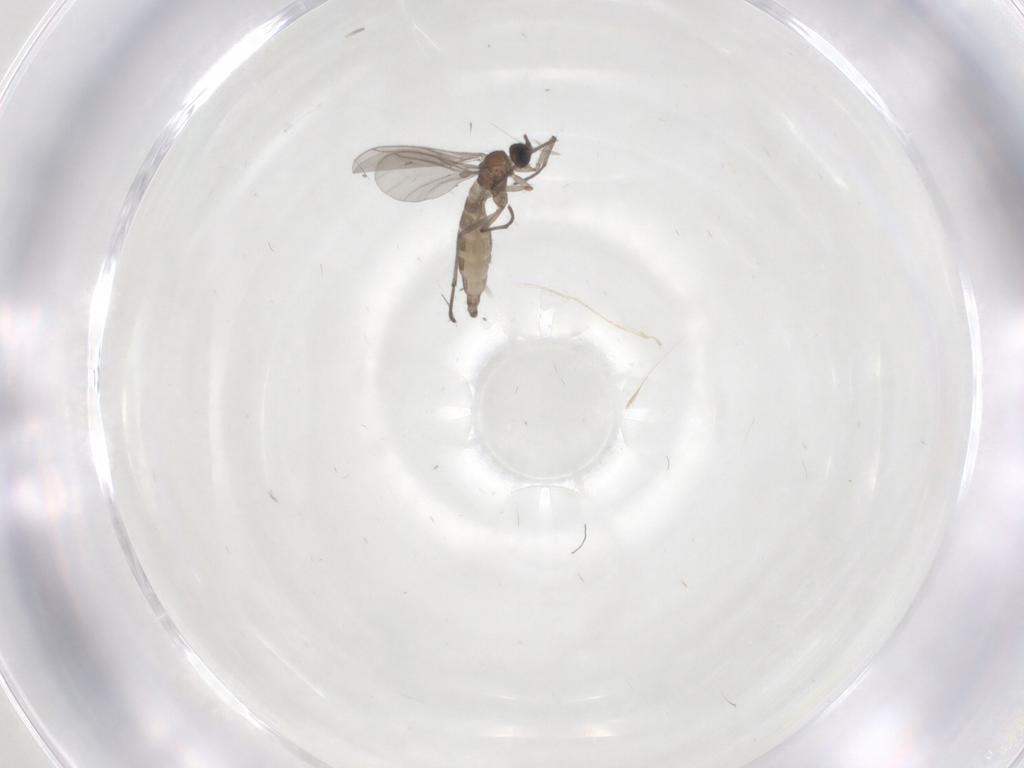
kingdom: Animalia
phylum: Arthropoda
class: Insecta
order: Diptera
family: Sciaridae
